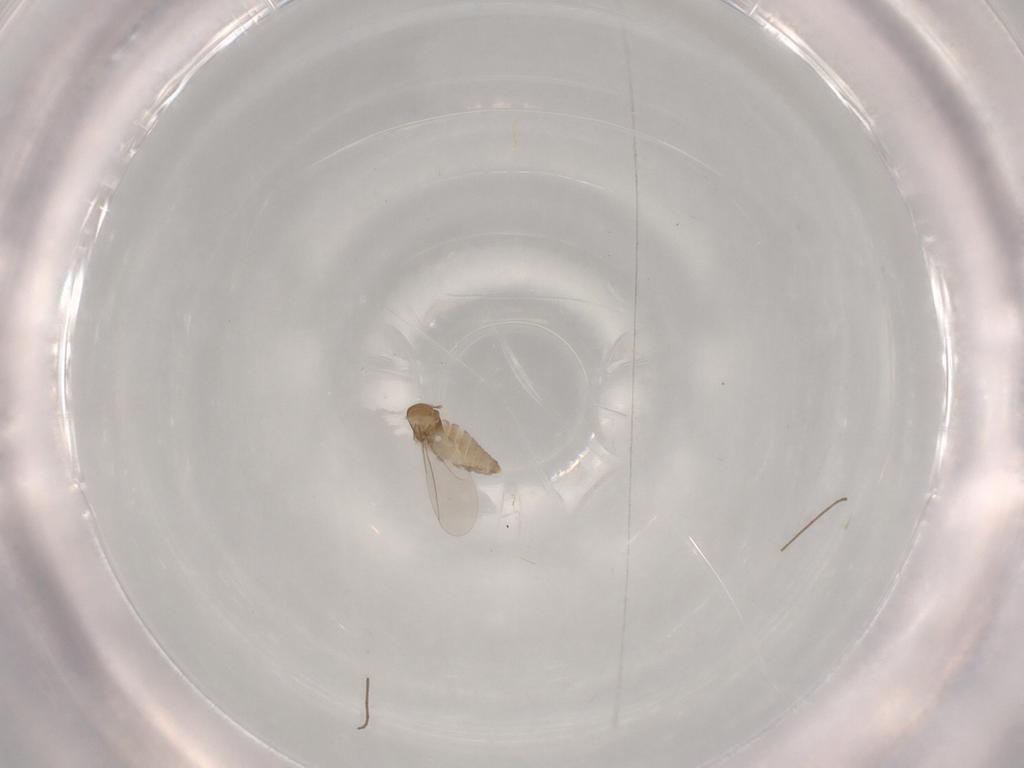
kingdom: Animalia
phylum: Arthropoda
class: Insecta
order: Diptera
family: Cecidomyiidae
